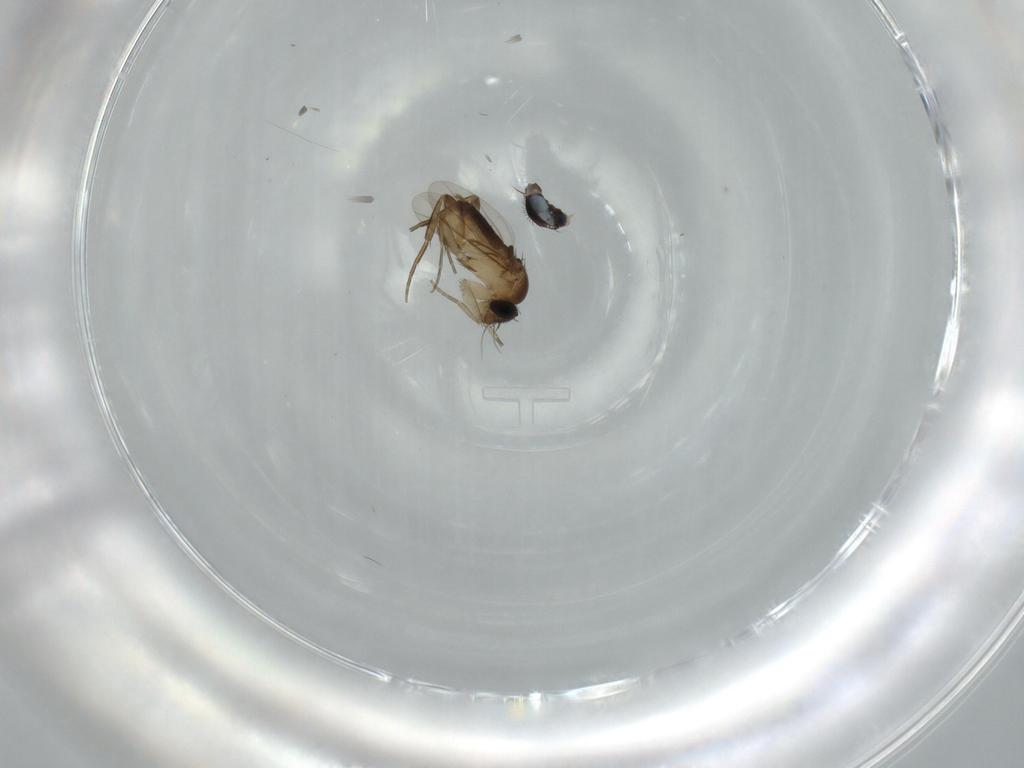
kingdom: Animalia
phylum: Arthropoda
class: Insecta
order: Diptera
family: Phoridae
